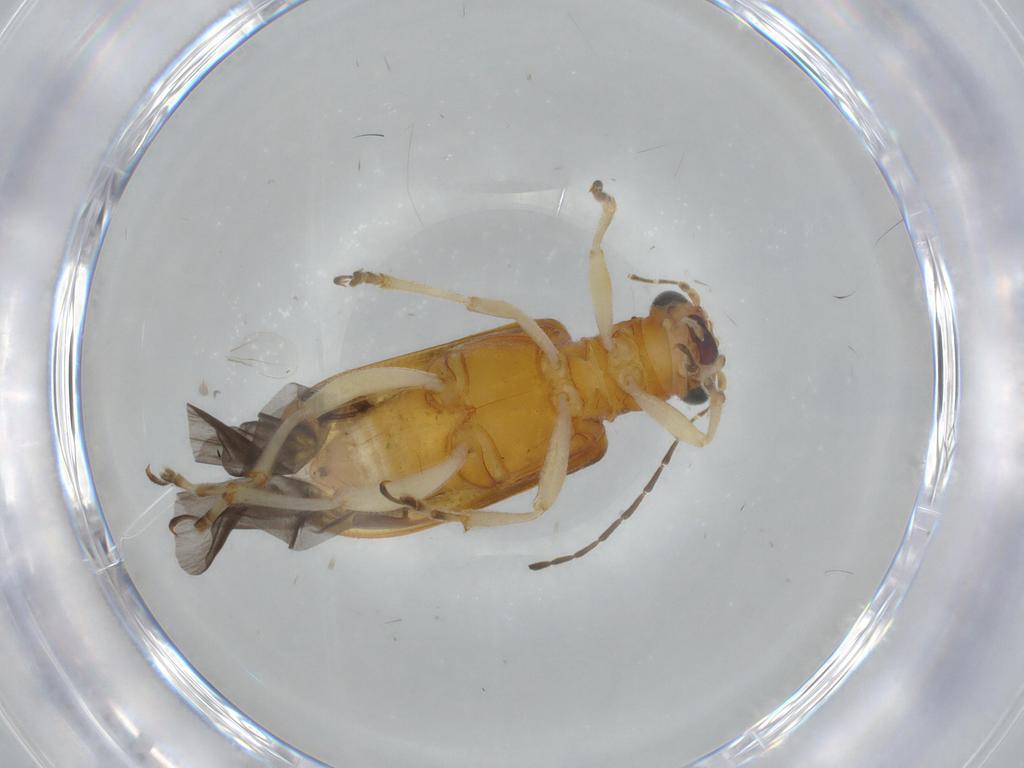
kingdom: Animalia
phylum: Arthropoda
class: Insecta
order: Coleoptera
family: Chrysomelidae
